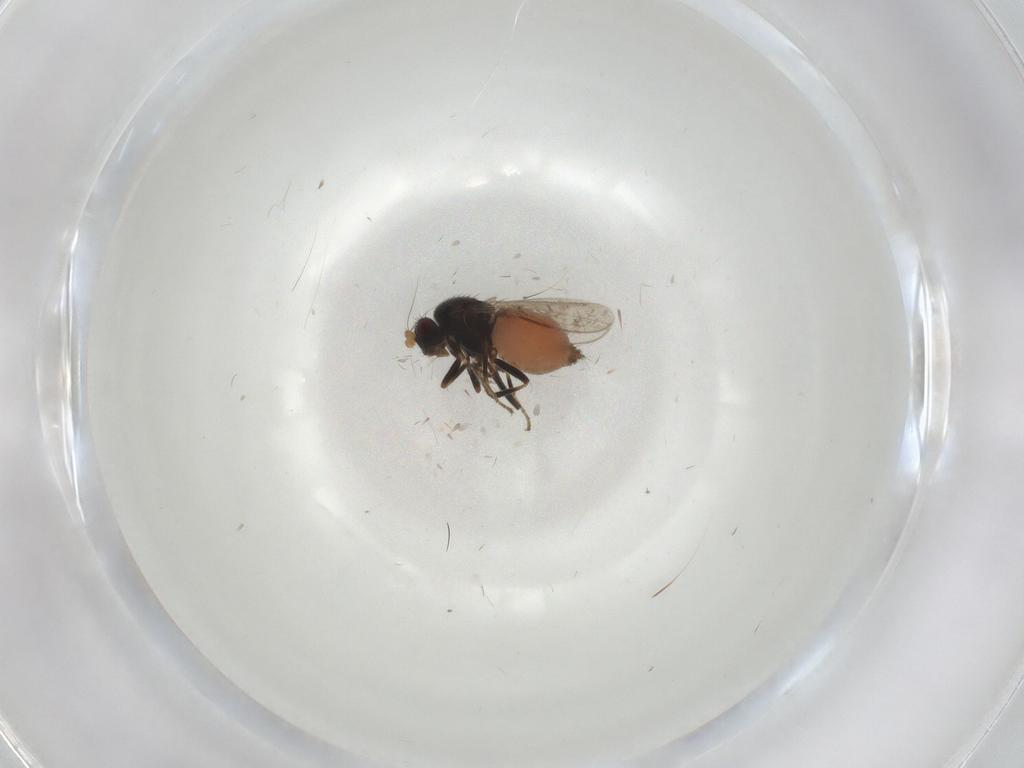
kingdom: Animalia
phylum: Arthropoda
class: Insecta
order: Diptera
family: Sphaeroceridae
